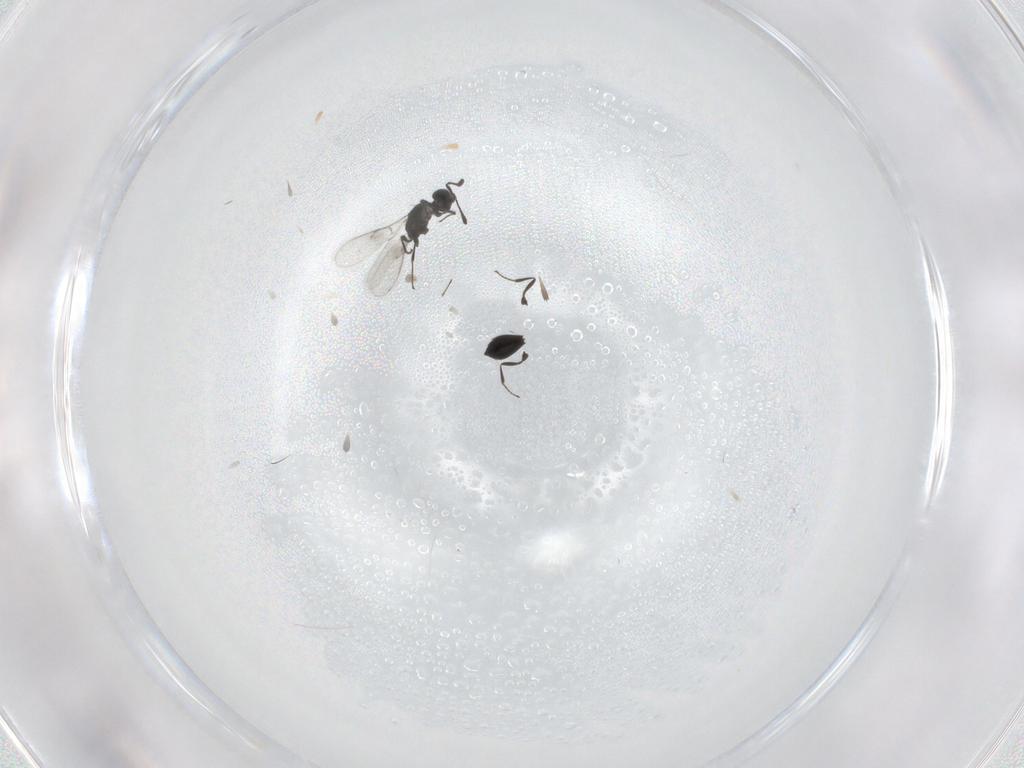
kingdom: Animalia
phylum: Arthropoda
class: Insecta
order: Hymenoptera
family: Scelionidae
